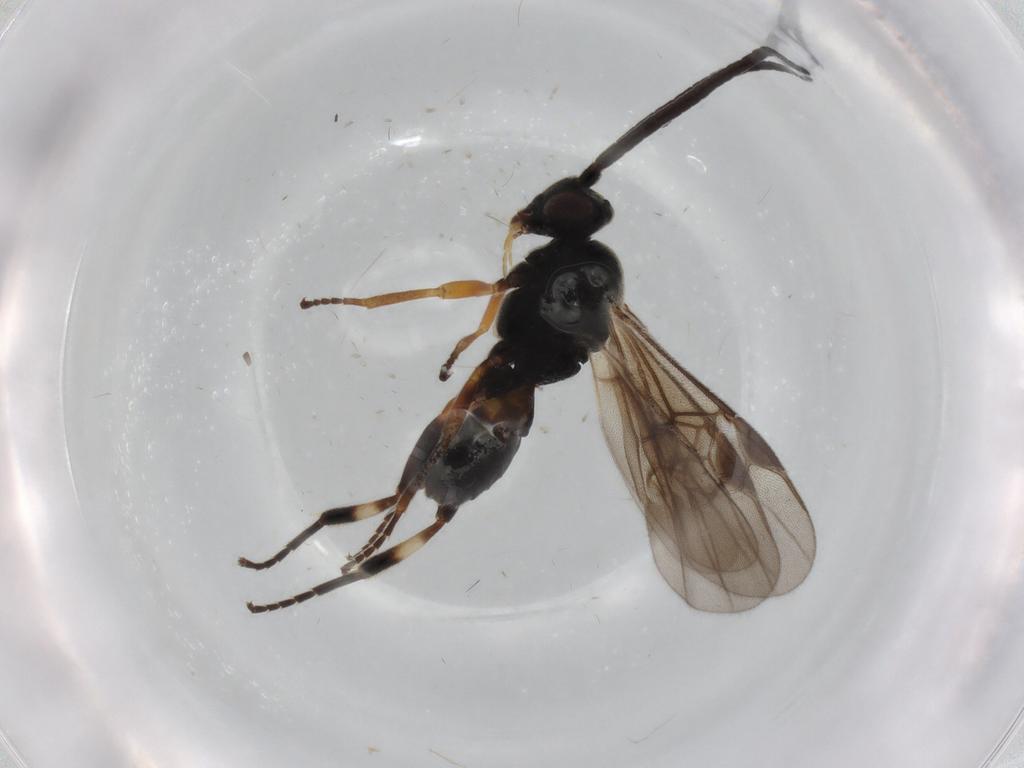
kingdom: Animalia
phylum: Arthropoda
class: Insecta
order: Hymenoptera
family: Braconidae
